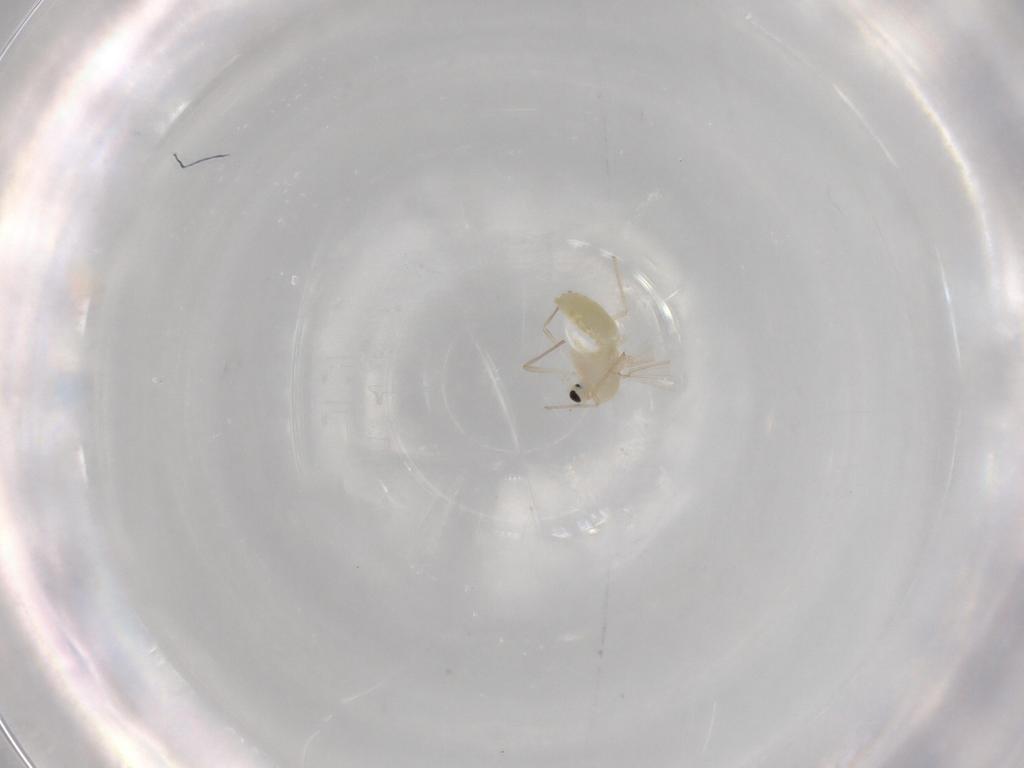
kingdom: Animalia
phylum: Arthropoda
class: Insecta
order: Diptera
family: Chironomidae
